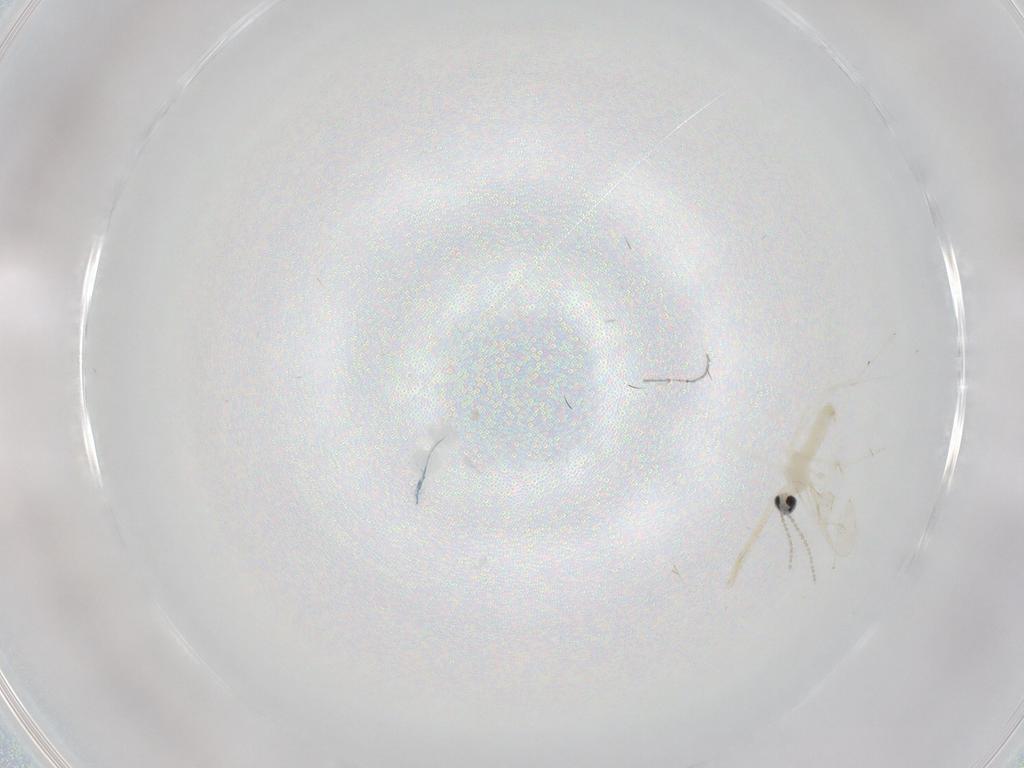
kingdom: Animalia
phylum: Arthropoda
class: Insecta
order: Diptera
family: Cecidomyiidae
